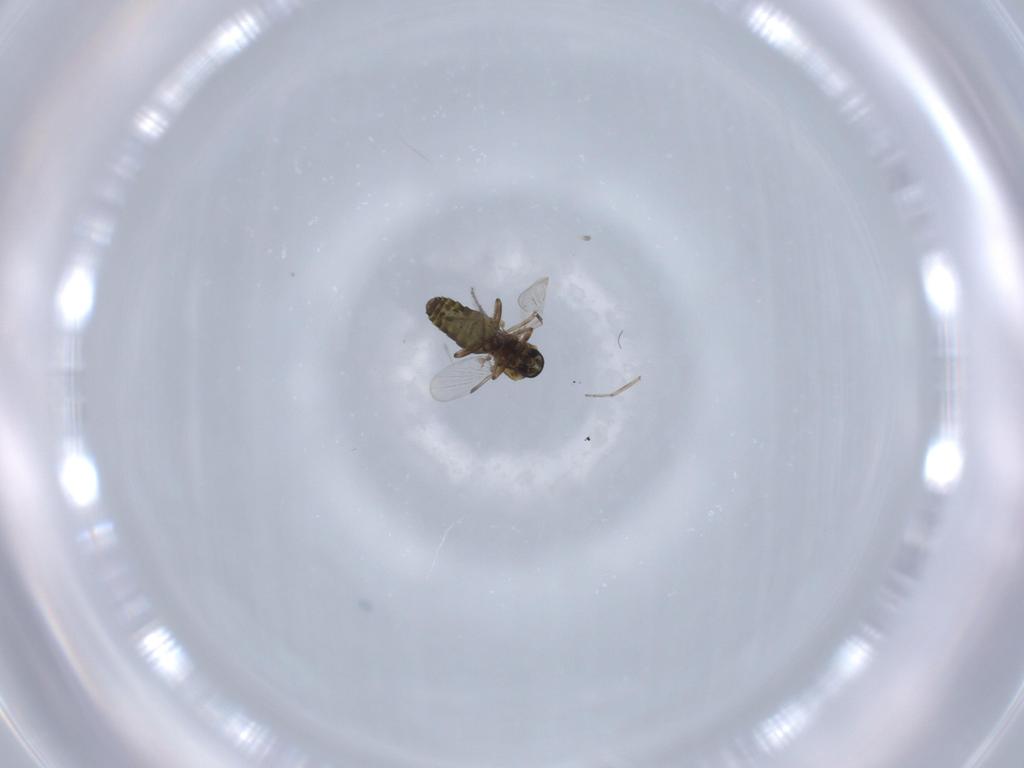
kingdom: Animalia
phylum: Arthropoda
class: Insecta
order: Diptera
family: Ceratopogonidae
